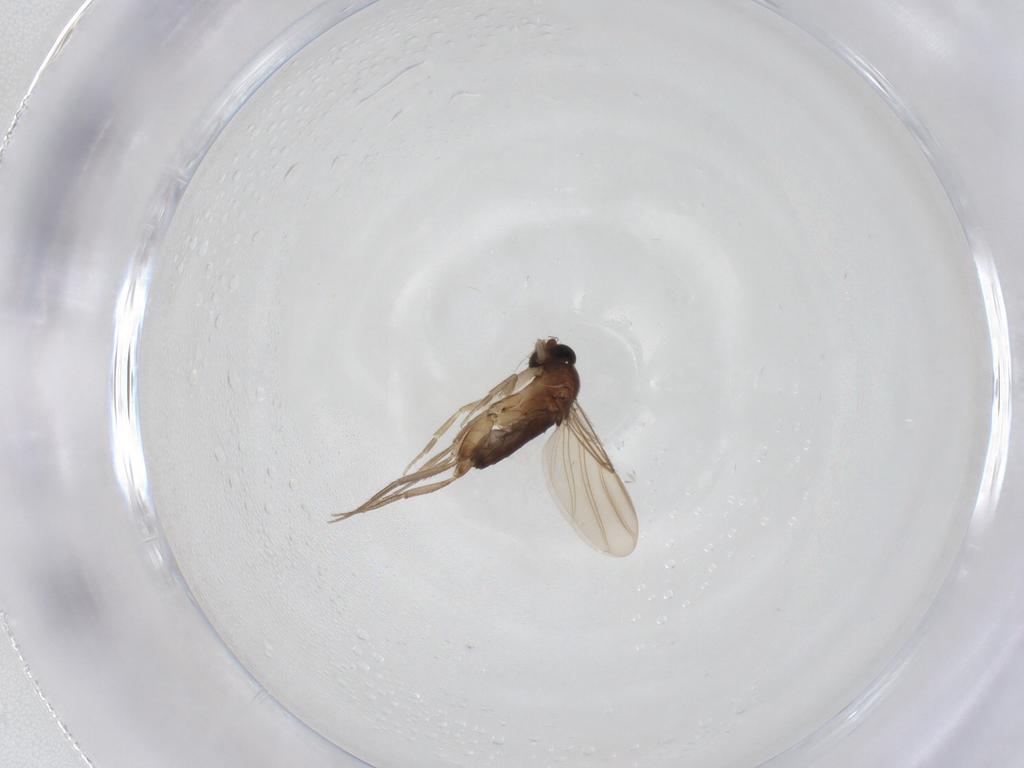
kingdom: Animalia
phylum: Arthropoda
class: Insecta
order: Diptera
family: Phoridae
